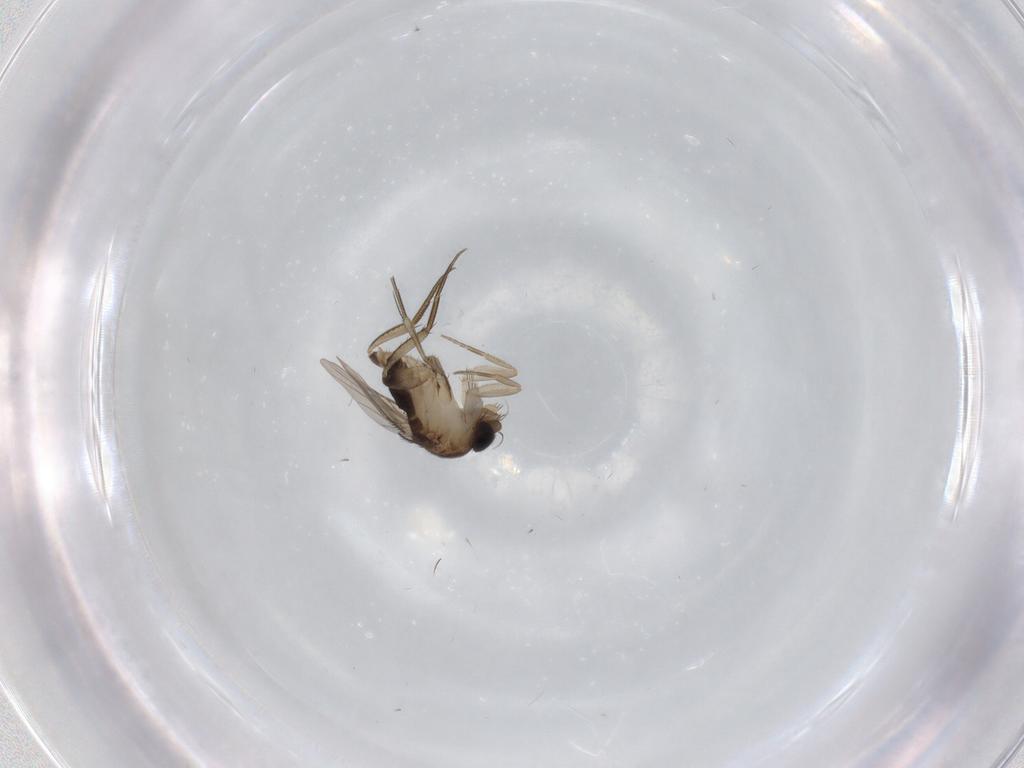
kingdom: Animalia
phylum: Arthropoda
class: Insecta
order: Diptera
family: Phoridae
